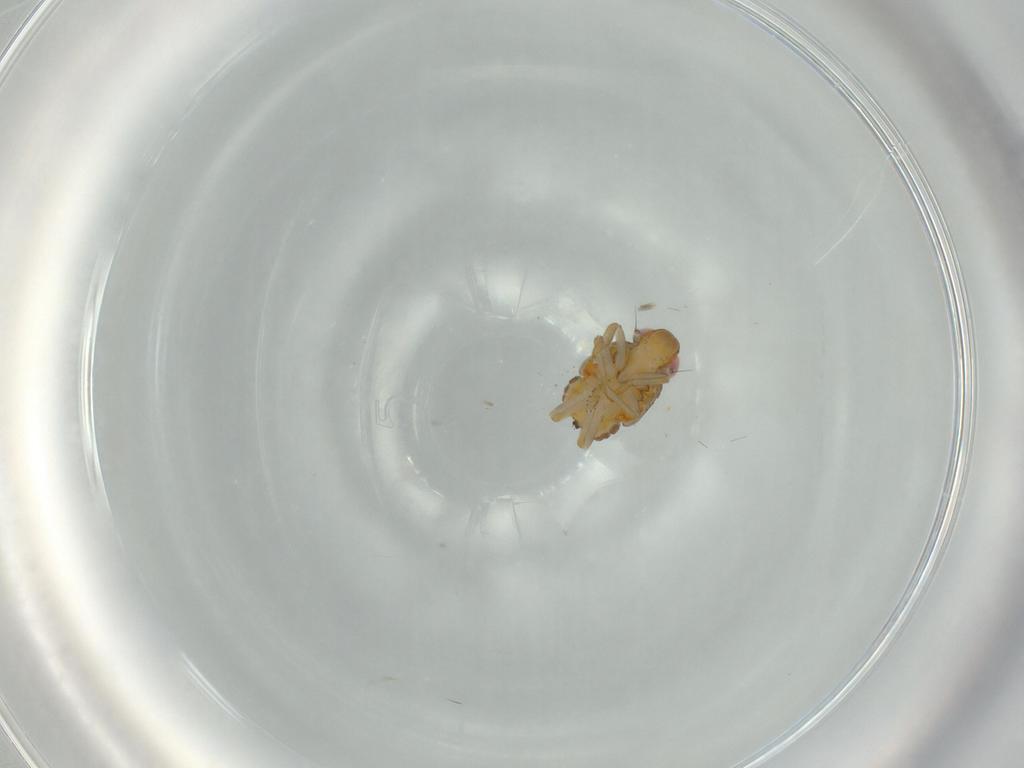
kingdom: Animalia
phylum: Arthropoda
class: Insecta
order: Hemiptera
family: Issidae
